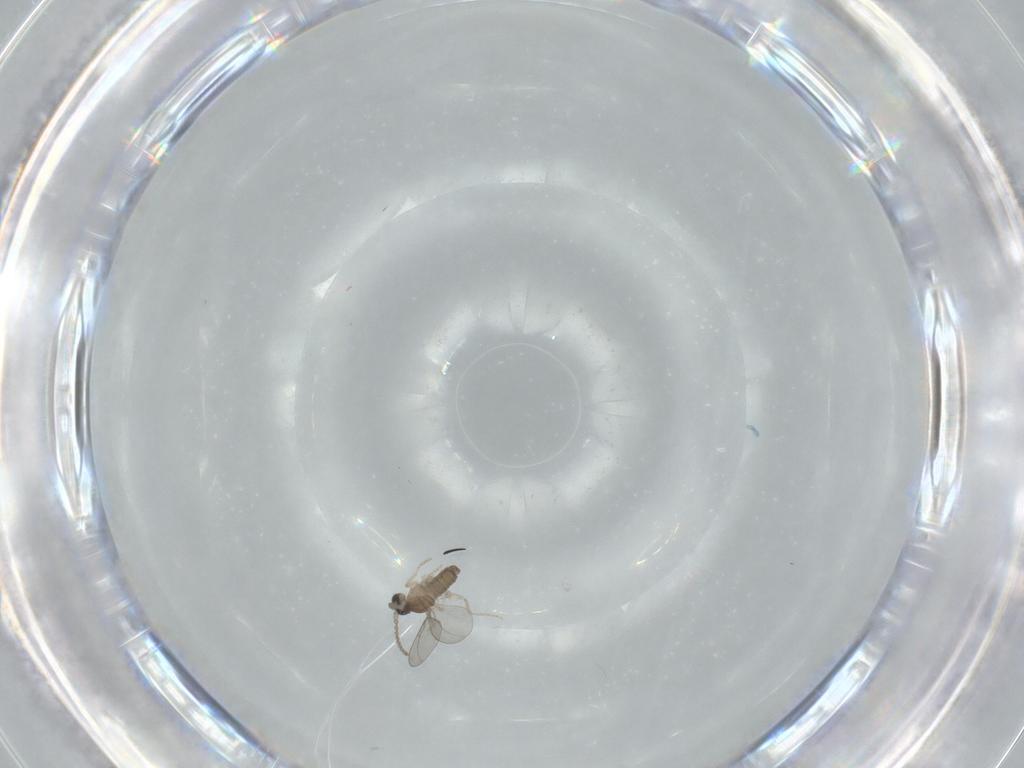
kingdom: Animalia
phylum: Arthropoda
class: Insecta
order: Diptera
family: Cecidomyiidae
